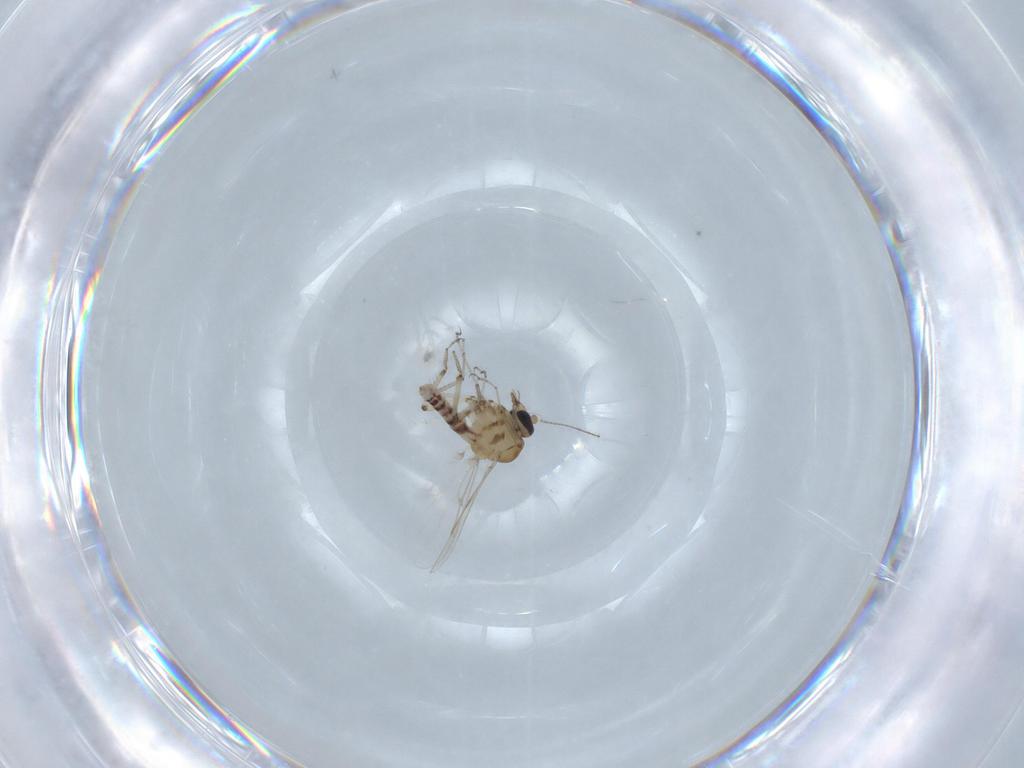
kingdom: Animalia
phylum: Arthropoda
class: Insecta
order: Diptera
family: Ceratopogonidae
